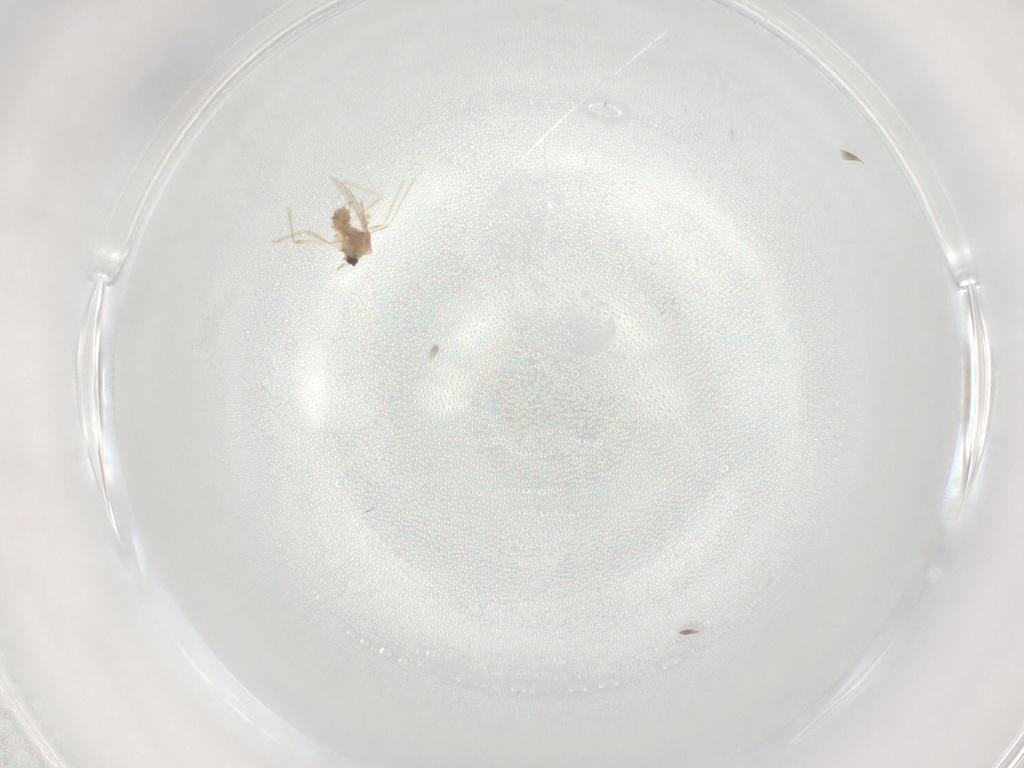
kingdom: Animalia
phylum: Arthropoda
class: Insecta
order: Diptera
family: Cecidomyiidae
